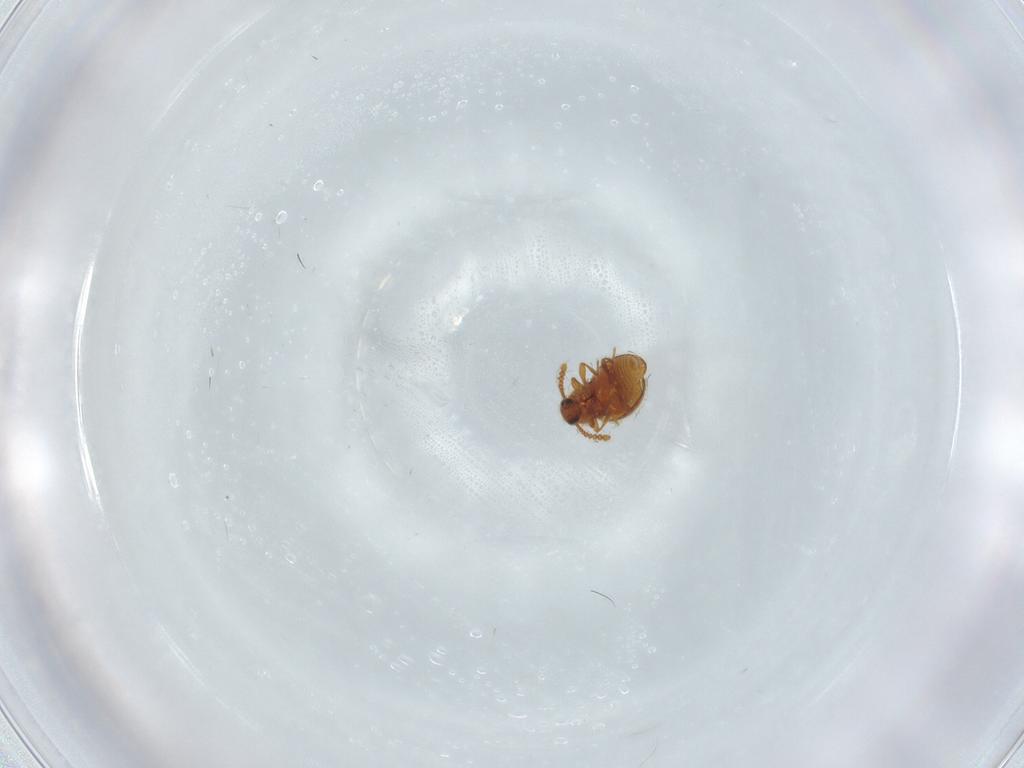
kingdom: Animalia
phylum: Arthropoda
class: Insecta
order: Coleoptera
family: Staphylinidae
